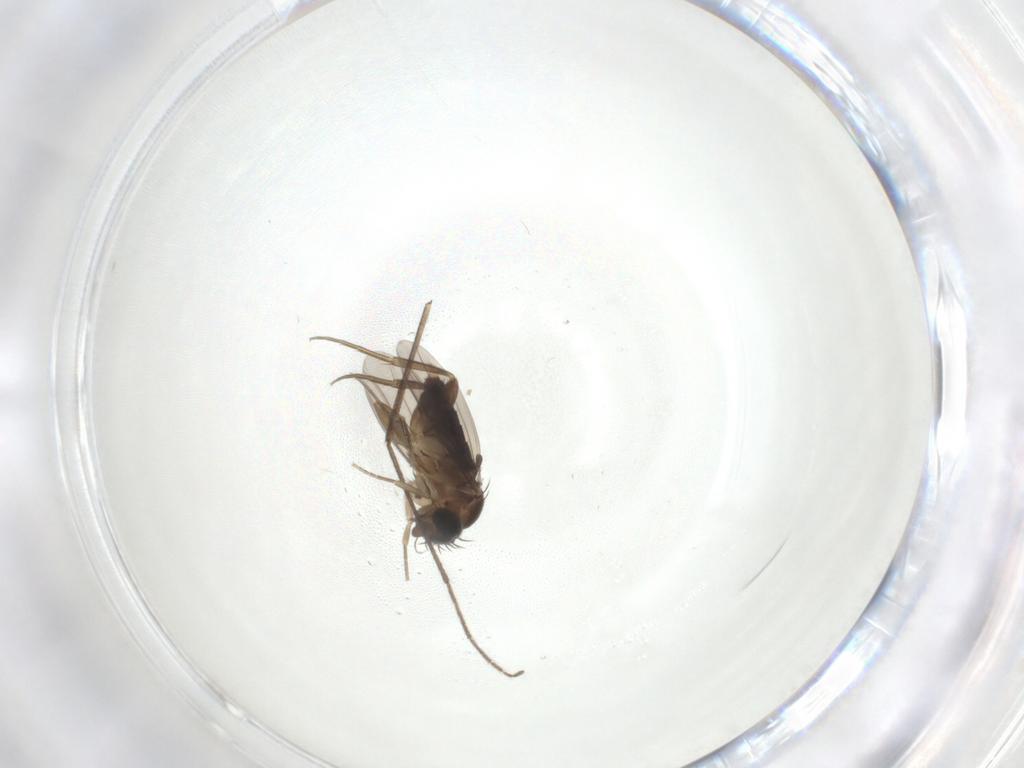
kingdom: Animalia
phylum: Arthropoda
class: Insecta
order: Diptera
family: Phoridae
